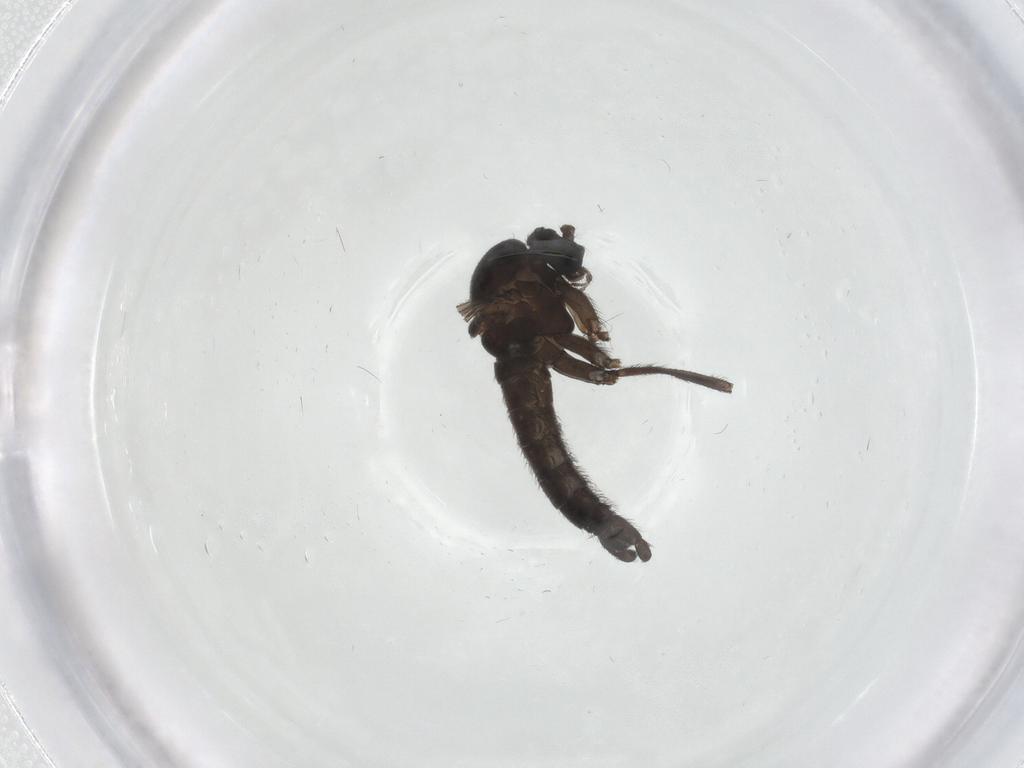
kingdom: Animalia
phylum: Arthropoda
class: Insecta
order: Diptera
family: Sciaridae
